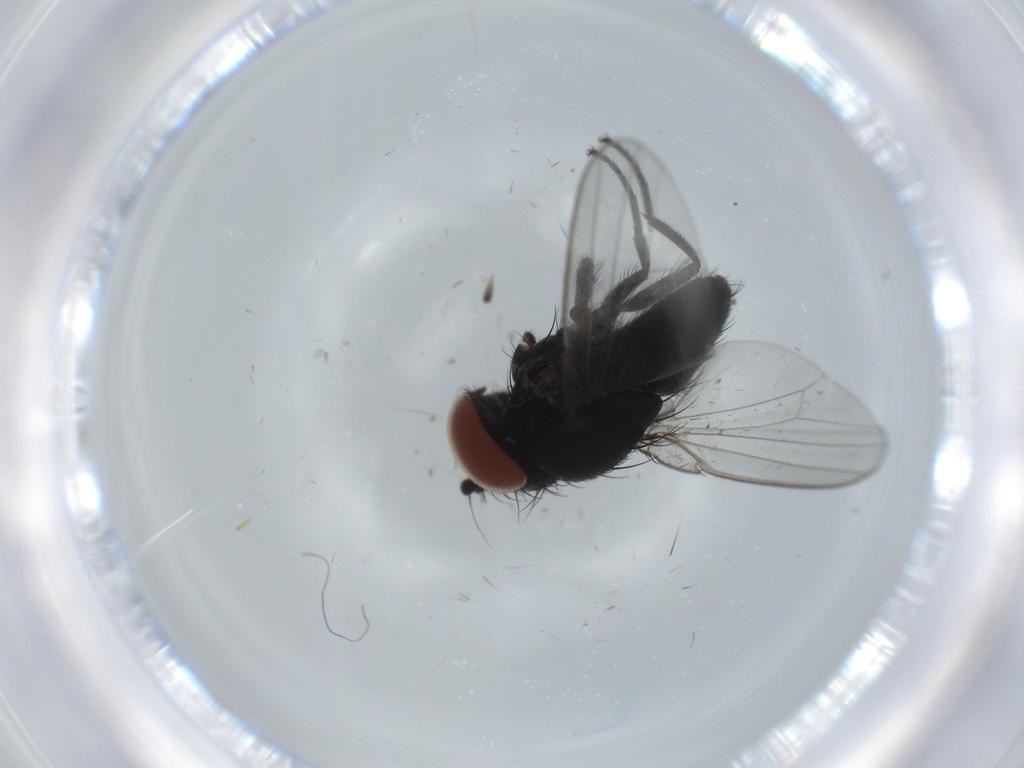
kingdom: Animalia
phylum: Arthropoda
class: Insecta
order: Diptera
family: Milichiidae
